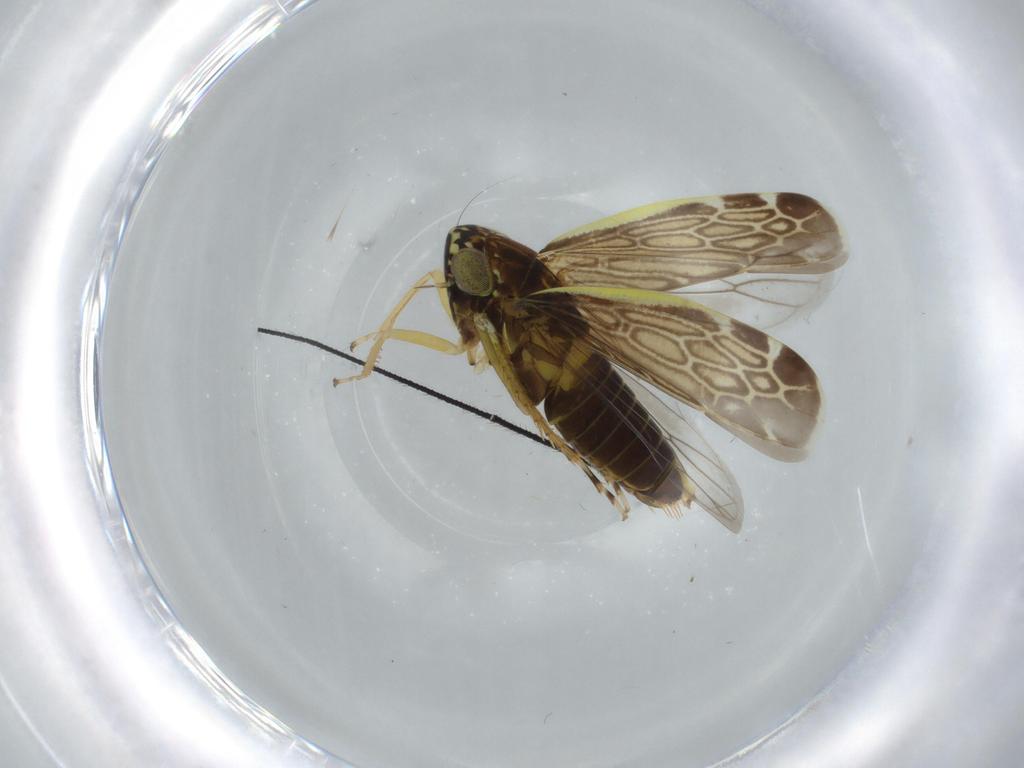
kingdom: Animalia
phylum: Arthropoda
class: Insecta
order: Hemiptera
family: Cicadellidae
